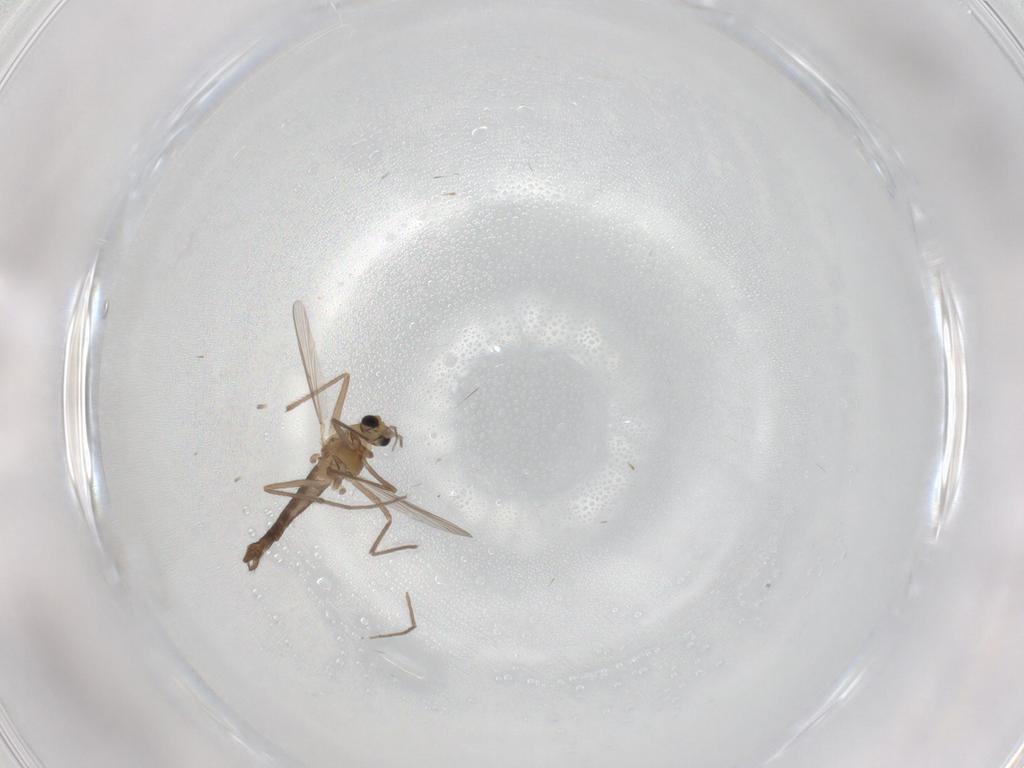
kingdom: Animalia
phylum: Arthropoda
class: Insecta
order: Diptera
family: Chironomidae
